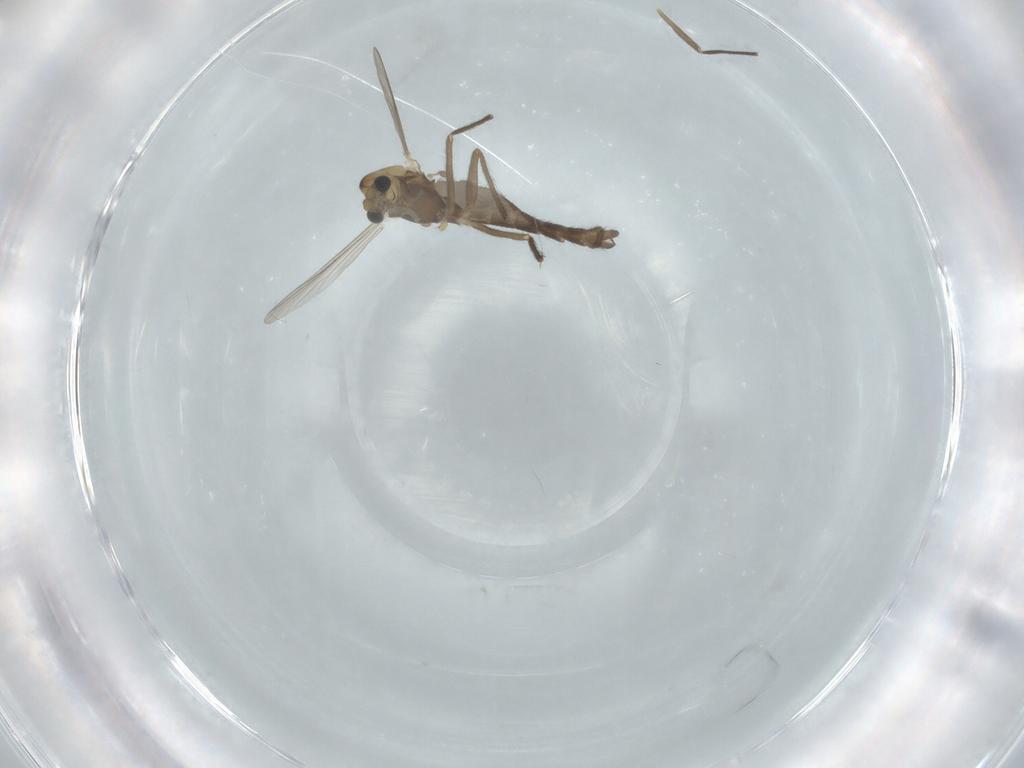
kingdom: Animalia
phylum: Arthropoda
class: Insecta
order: Diptera
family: Chironomidae
